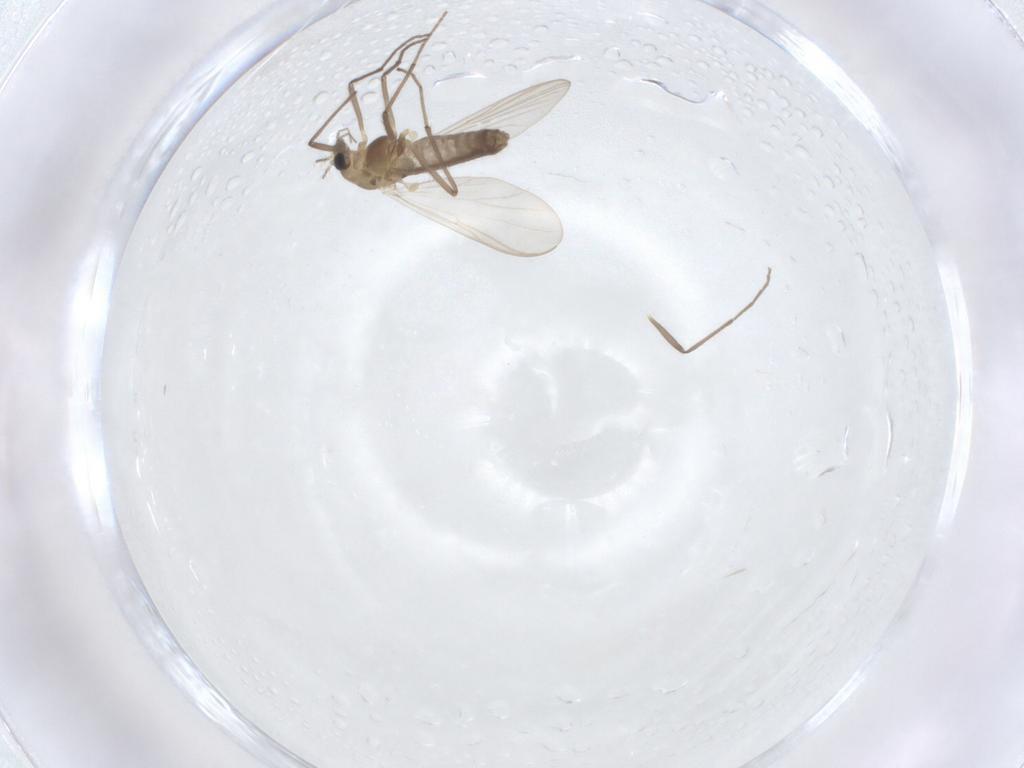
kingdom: Animalia
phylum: Arthropoda
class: Insecta
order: Diptera
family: Chironomidae
